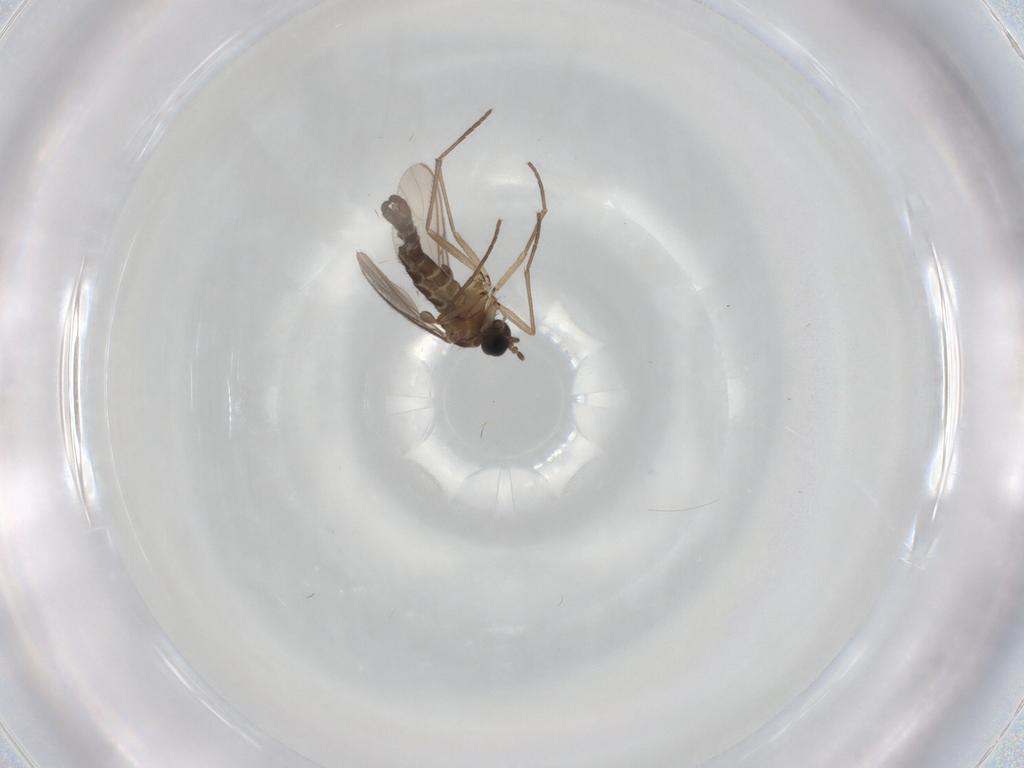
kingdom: Animalia
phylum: Arthropoda
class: Insecta
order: Diptera
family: Sciaridae
